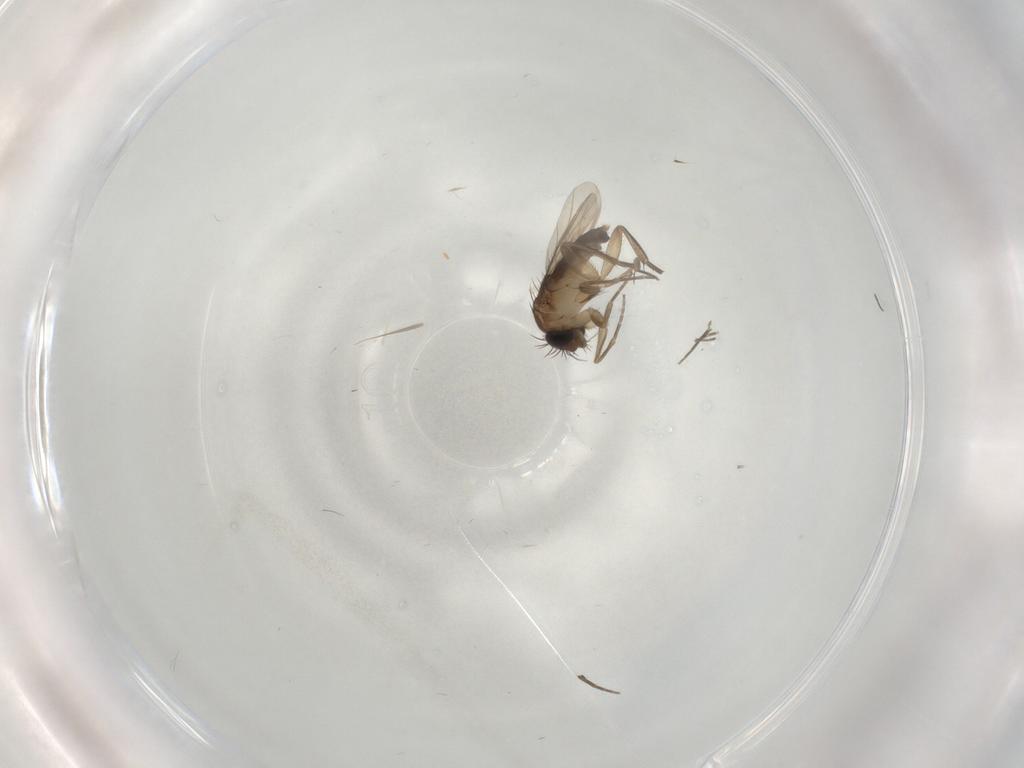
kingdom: Animalia
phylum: Arthropoda
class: Insecta
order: Diptera
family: Phoridae
